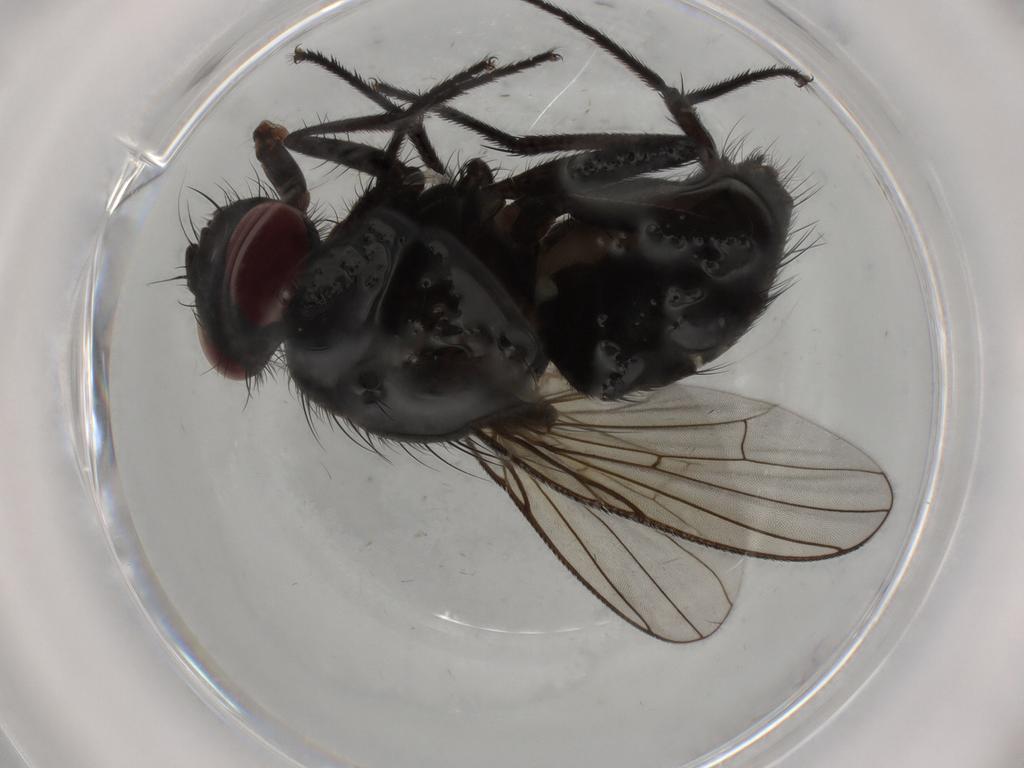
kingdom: Animalia
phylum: Arthropoda
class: Insecta
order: Diptera
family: Muscidae
